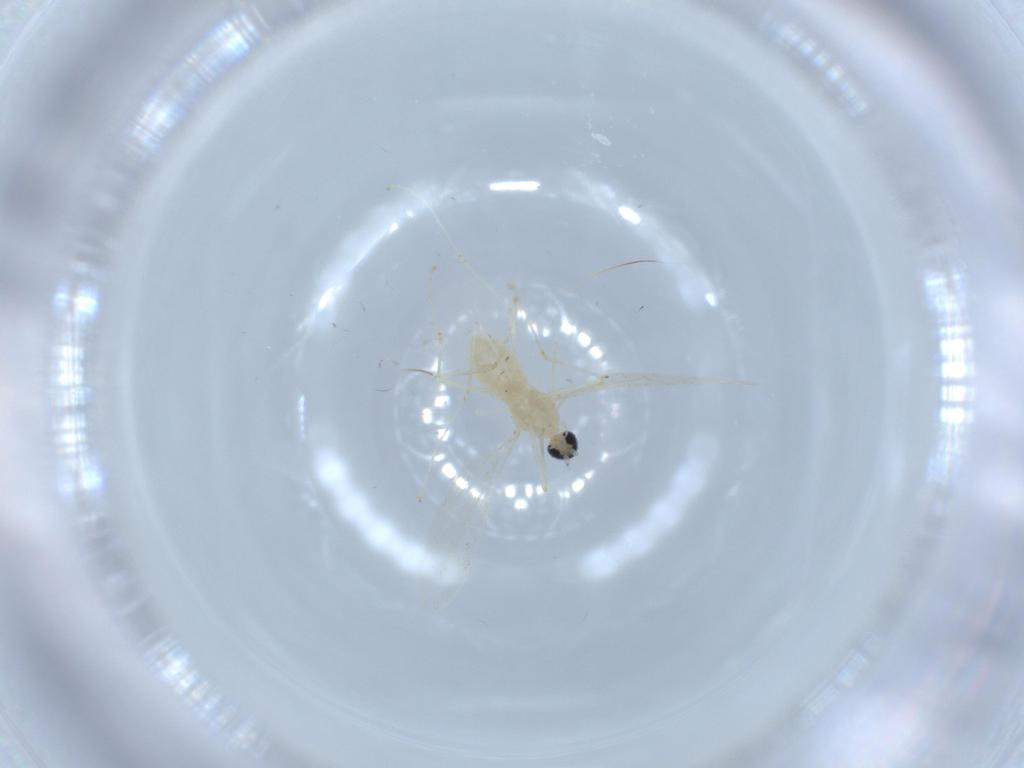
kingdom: Animalia
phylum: Arthropoda
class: Insecta
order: Diptera
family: Cecidomyiidae
